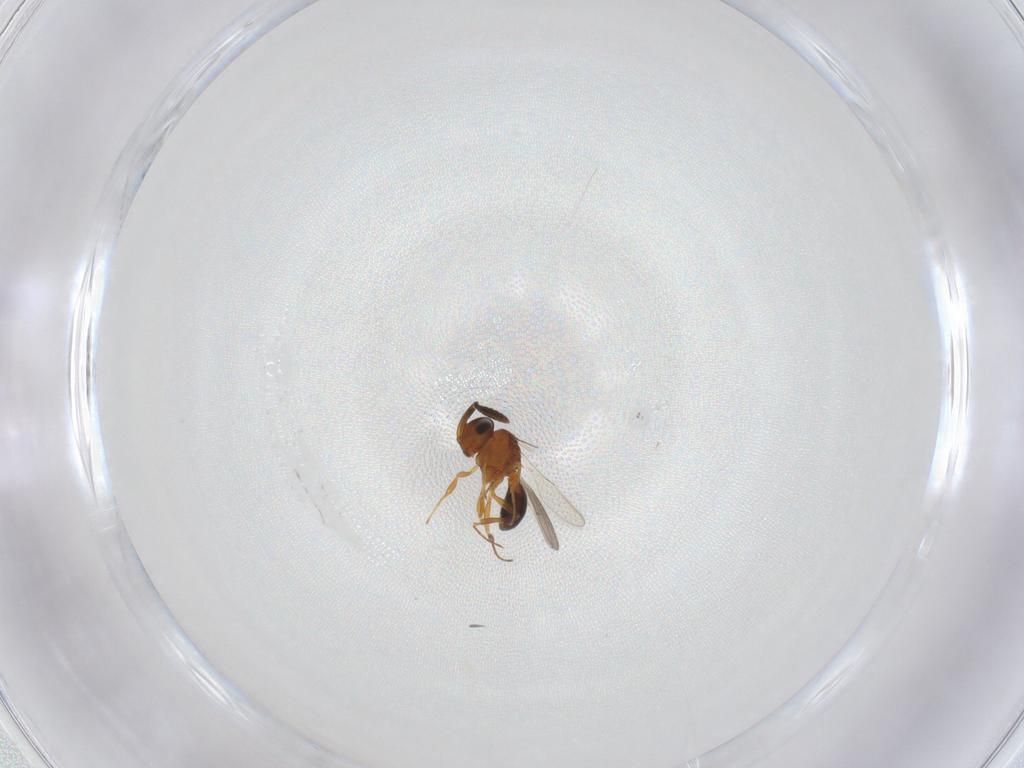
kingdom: Animalia
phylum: Arthropoda
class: Insecta
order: Hymenoptera
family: Scelionidae
